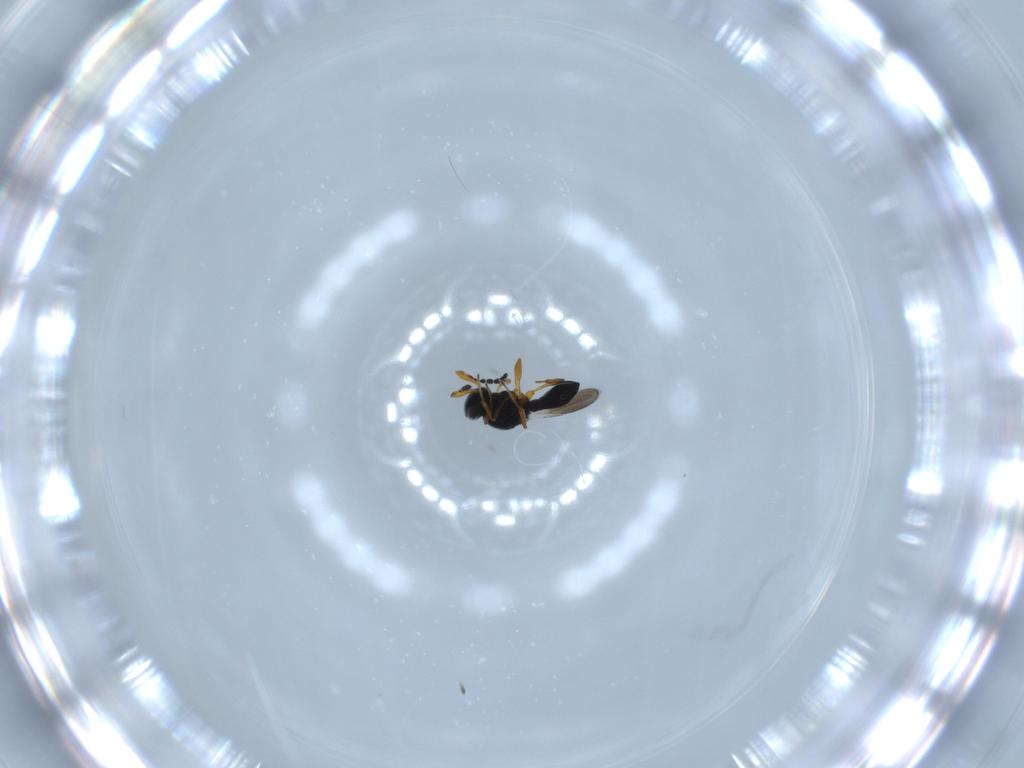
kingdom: Animalia
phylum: Arthropoda
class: Insecta
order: Hymenoptera
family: Platygastridae
